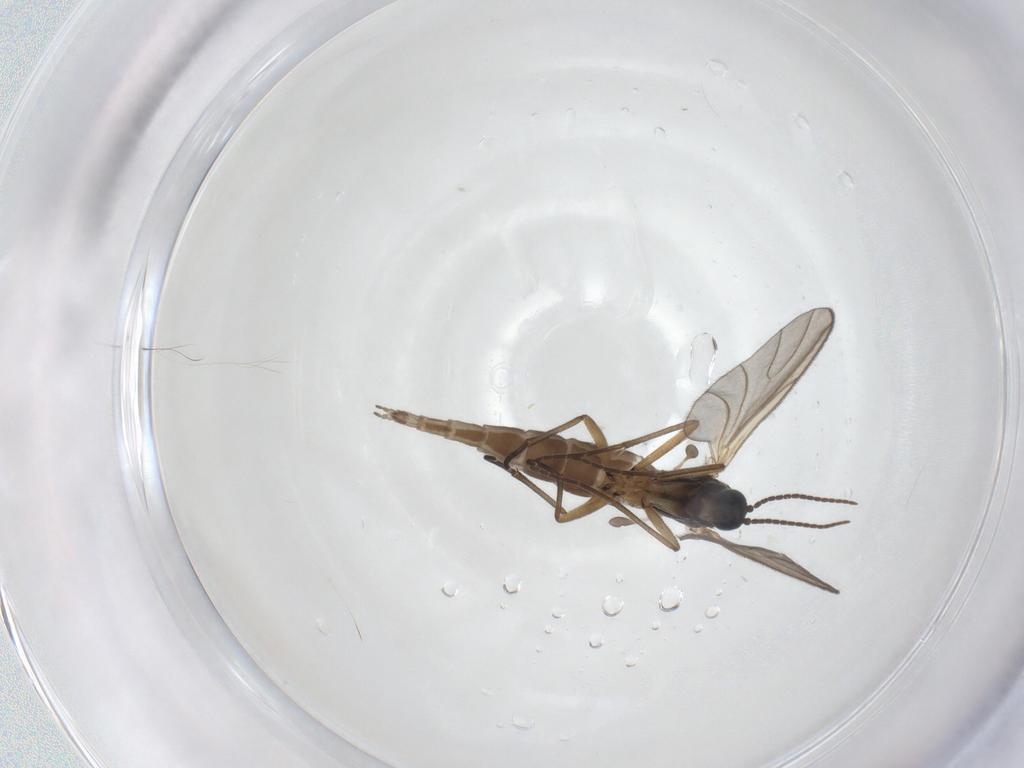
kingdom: Animalia
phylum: Arthropoda
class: Insecta
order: Diptera
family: Sciaridae
